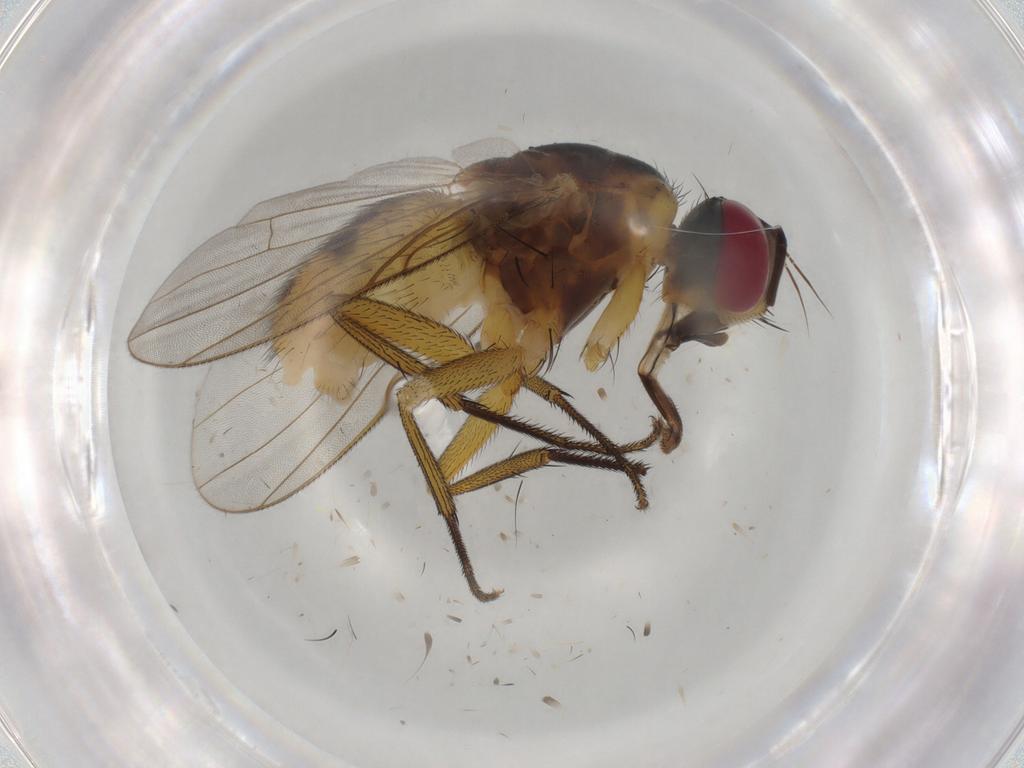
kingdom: Animalia
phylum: Arthropoda
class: Insecta
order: Diptera
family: Muscidae
